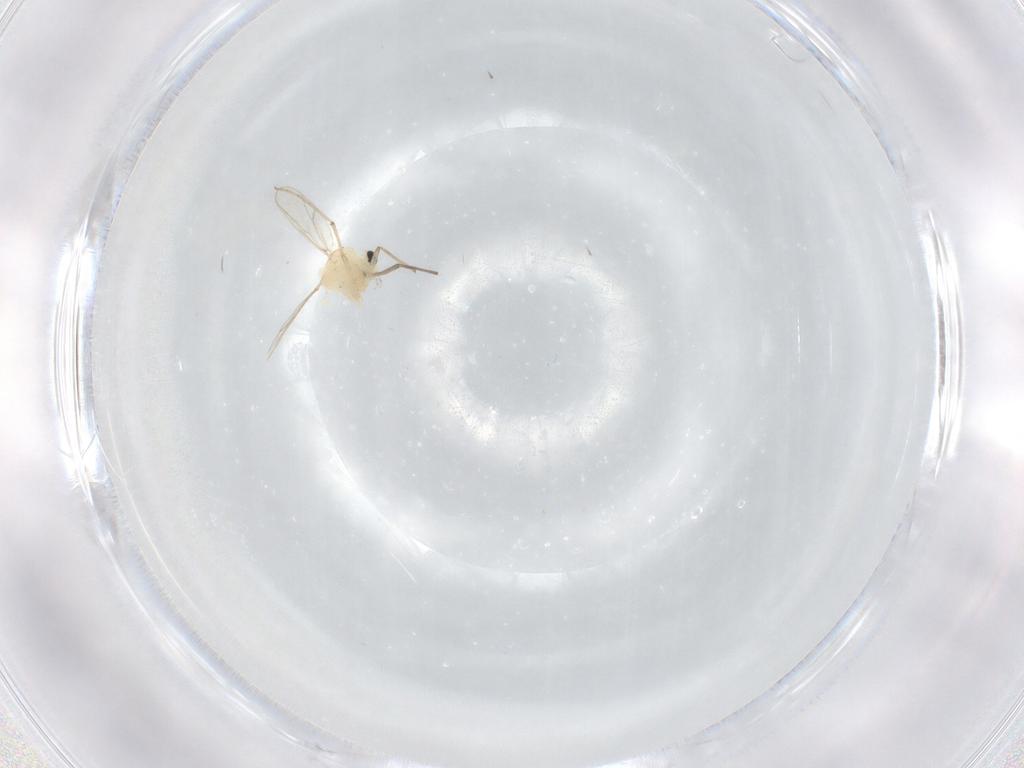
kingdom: Animalia
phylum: Arthropoda
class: Insecta
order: Diptera
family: Chironomidae
